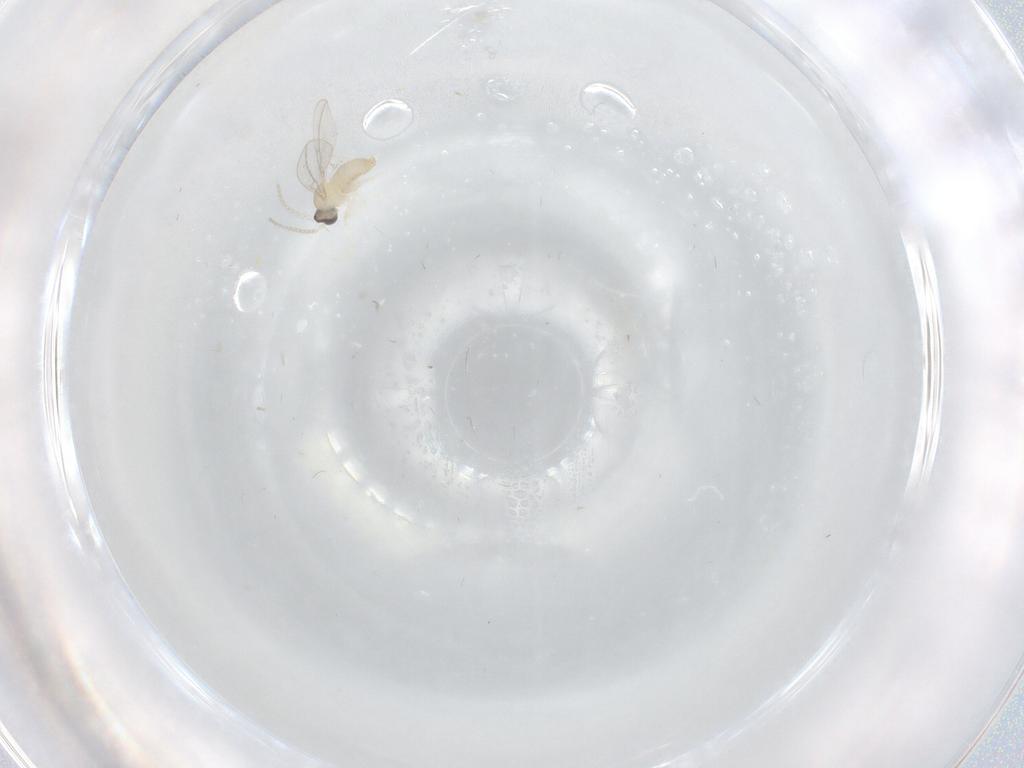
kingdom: Animalia
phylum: Arthropoda
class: Insecta
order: Diptera
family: Cecidomyiidae
